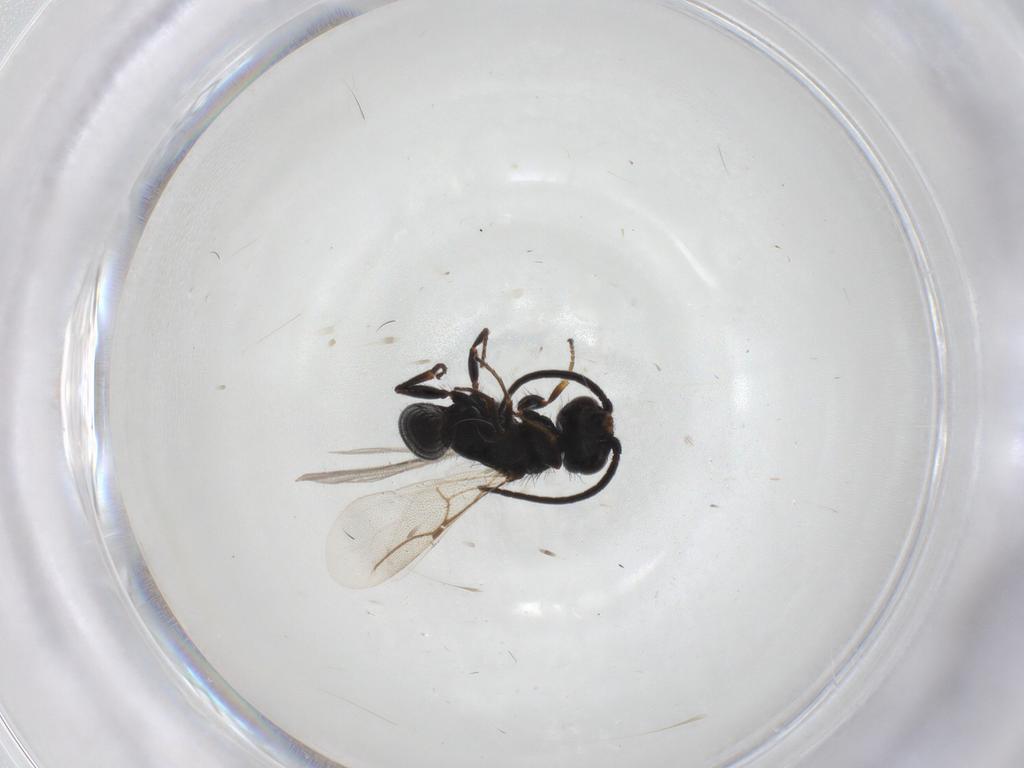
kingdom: Animalia
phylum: Arthropoda
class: Insecta
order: Hymenoptera
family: Bethylidae
